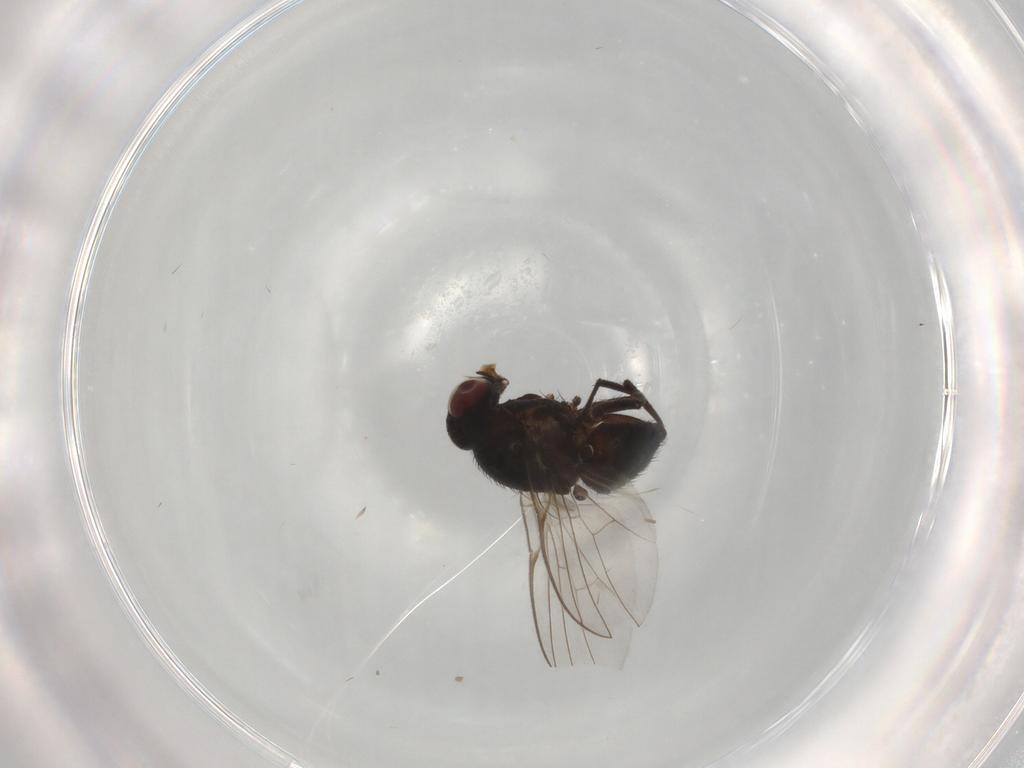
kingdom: Animalia
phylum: Arthropoda
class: Insecta
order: Diptera
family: Agromyzidae
